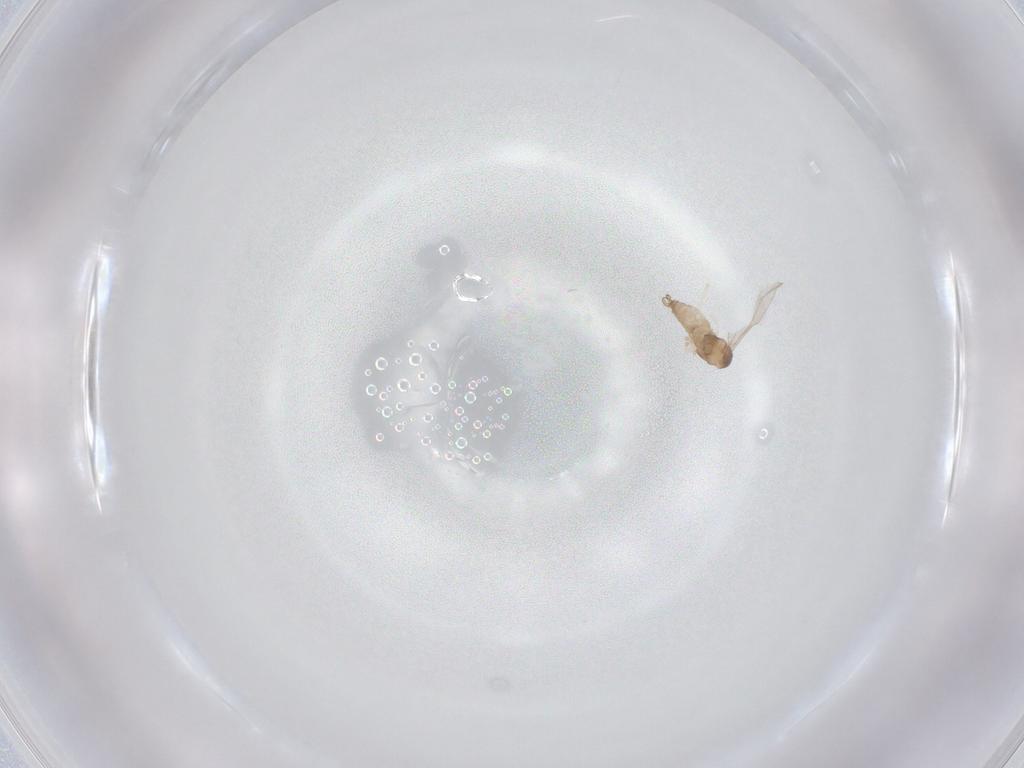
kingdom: Animalia
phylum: Arthropoda
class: Insecta
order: Diptera
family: Cecidomyiidae
